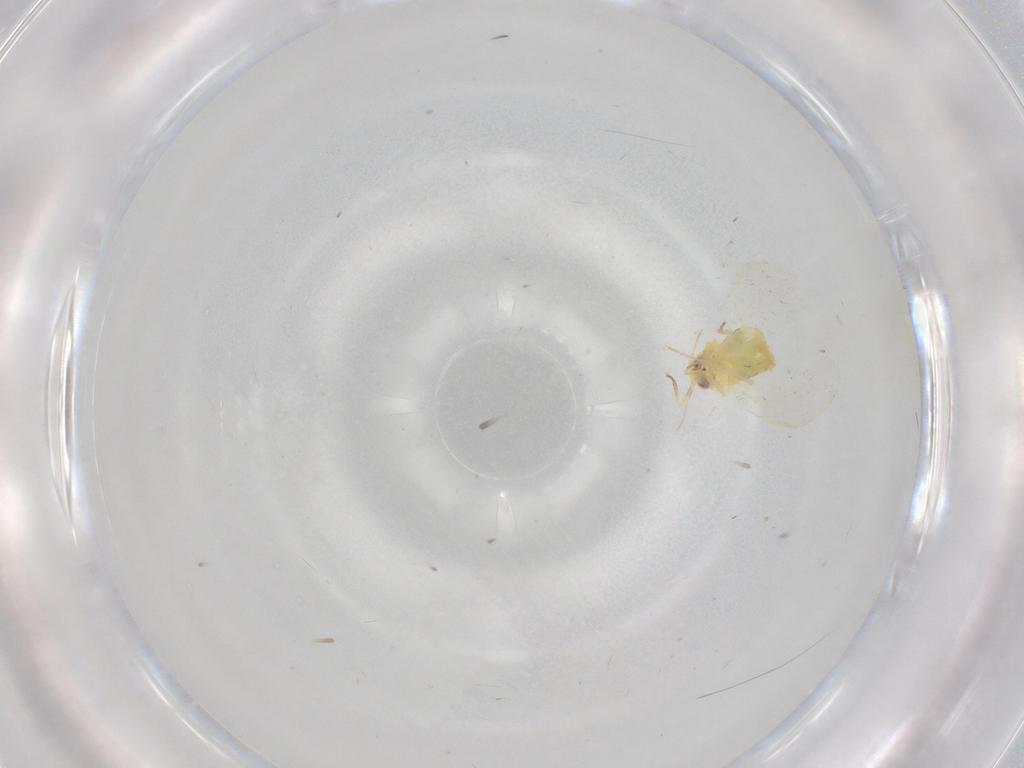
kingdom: Animalia
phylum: Arthropoda
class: Insecta
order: Hemiptera
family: Aleyrodidae
